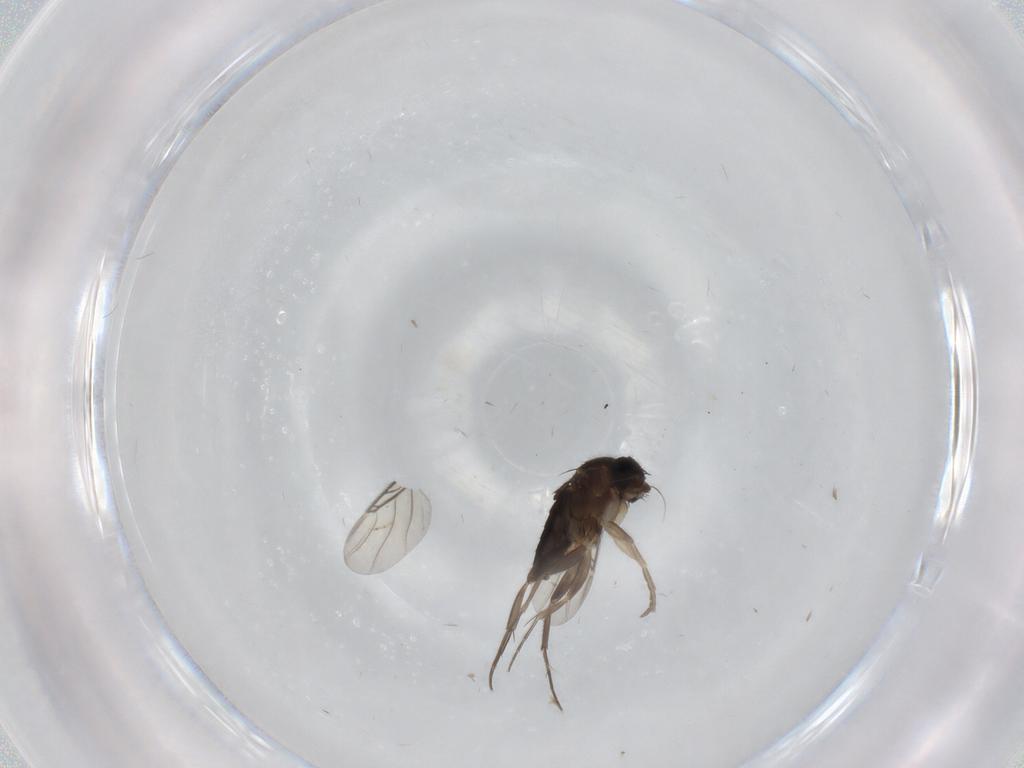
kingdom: Animalia
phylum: Arthropoda
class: Insecta
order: Diptera
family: Phoridae
